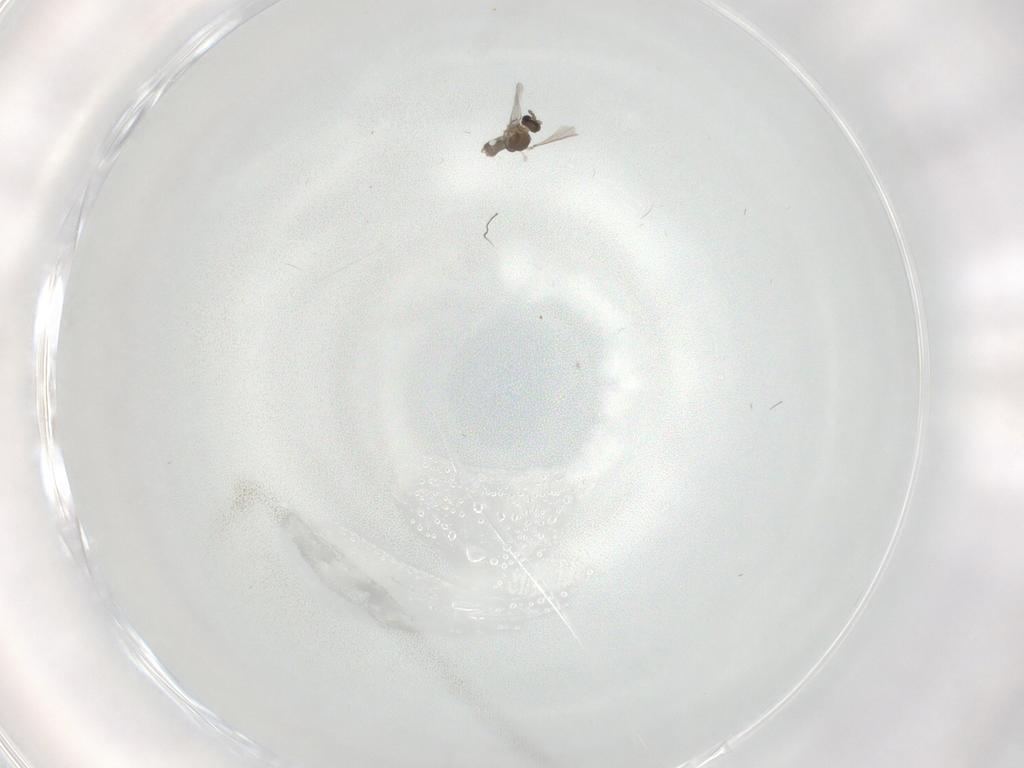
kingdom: Animalia
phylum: Arthropoda
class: Insecta
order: Diptera
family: Cecidomyiidae
